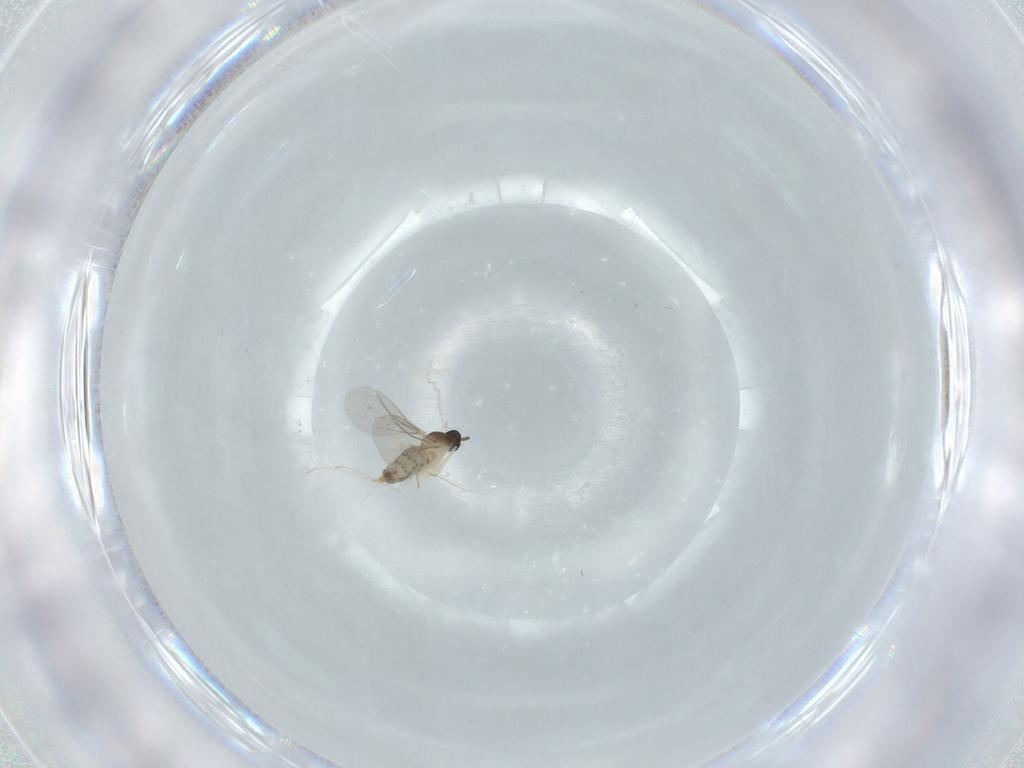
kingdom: Animalia
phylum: Arthropoda
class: Insecta
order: Diptera
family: Cecidomyiidae
